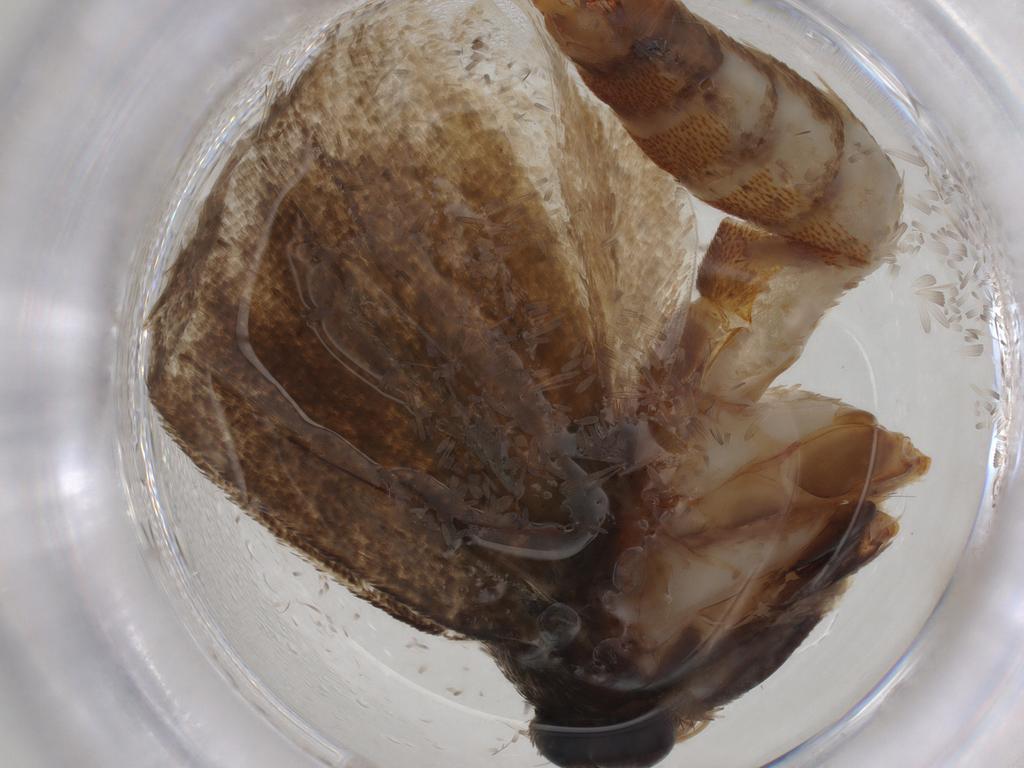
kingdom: Animalia
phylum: Arthropoda
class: Insecta
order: Lepidoptera
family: Oecophoridae
